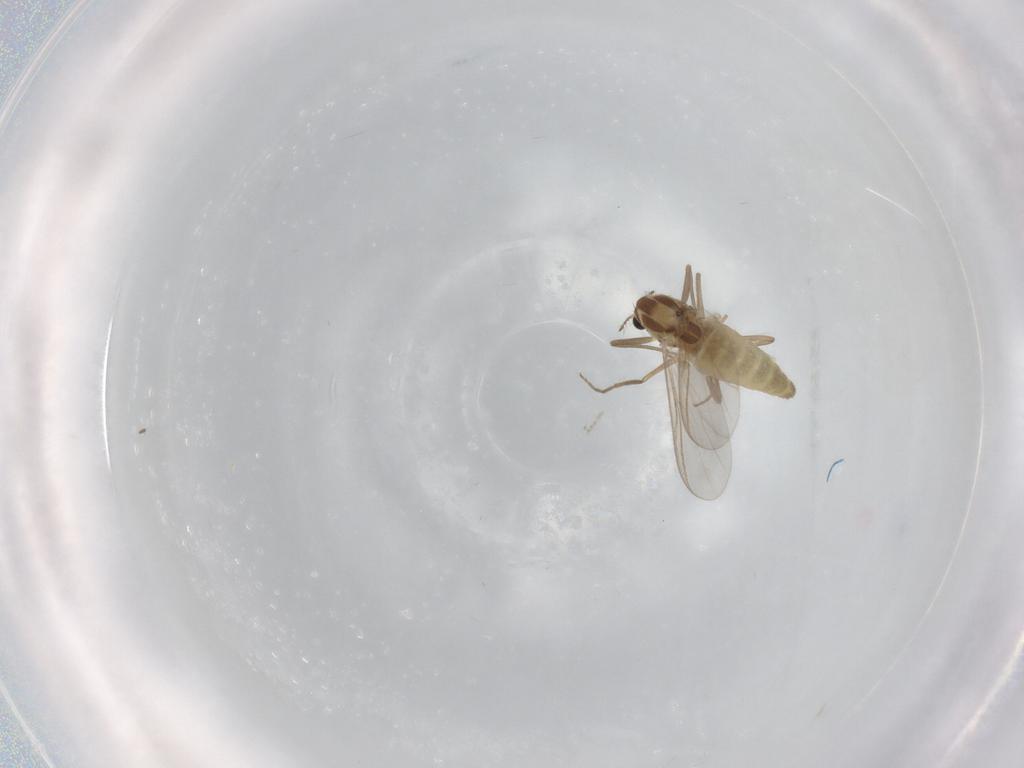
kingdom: Animalia
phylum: Arthropoda
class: Insecta
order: Diptera
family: Chironomidae
